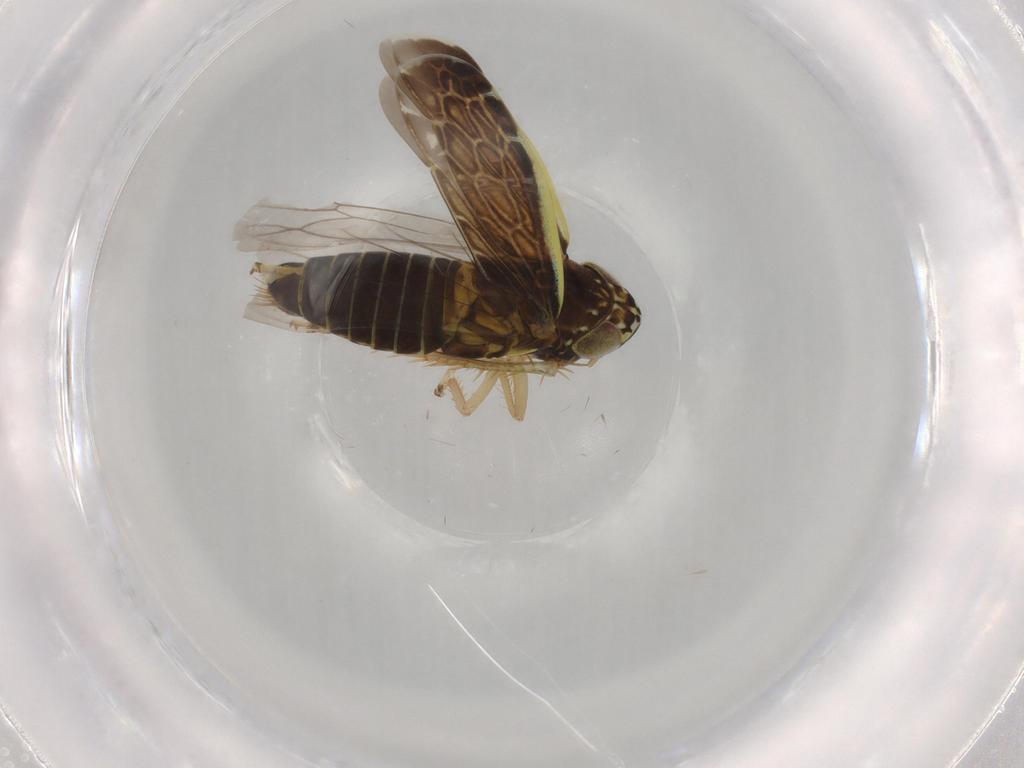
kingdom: Animalia
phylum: Arthropoda
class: Insecta
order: Hemiptera
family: Cicadellidae
